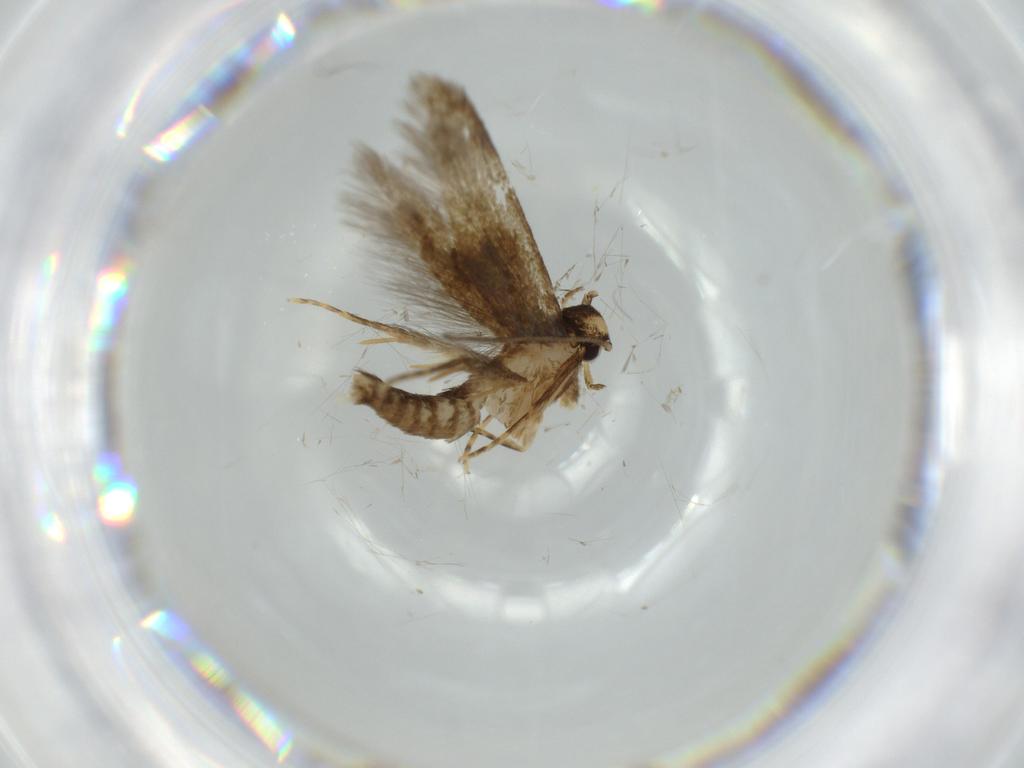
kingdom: Animalia
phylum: Arthropoda
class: Insecta
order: Lepidoptera
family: Tineidae
